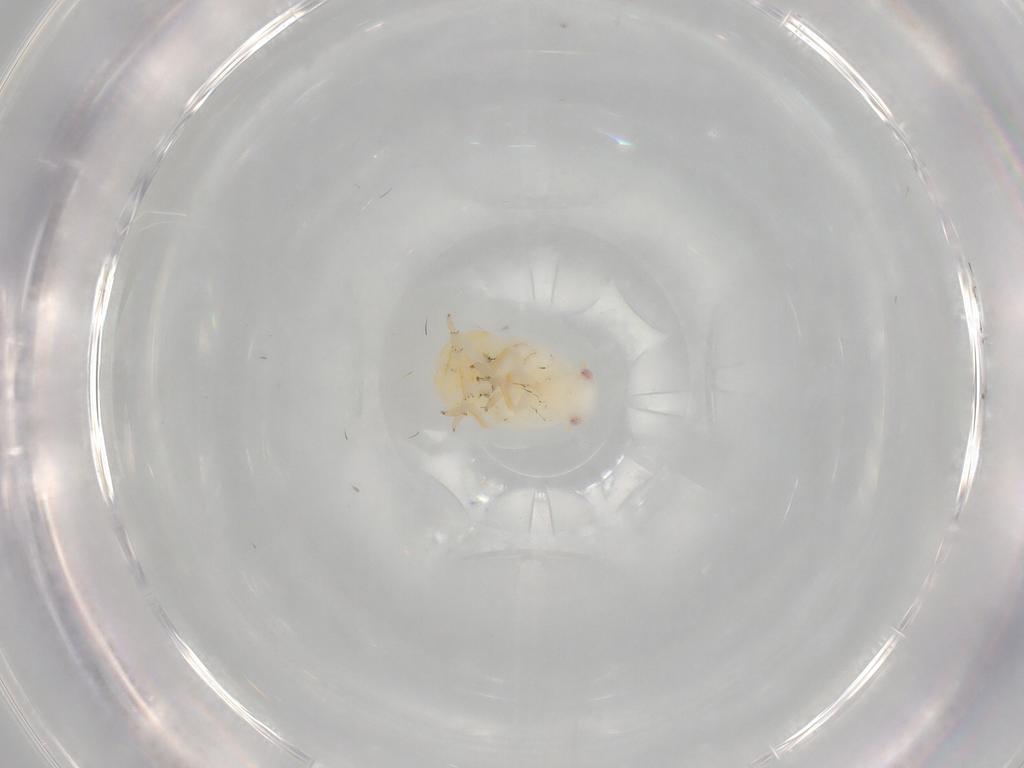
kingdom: Animalia
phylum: Arthropoda
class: Insecta
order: Hemiptera
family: Flatidae
